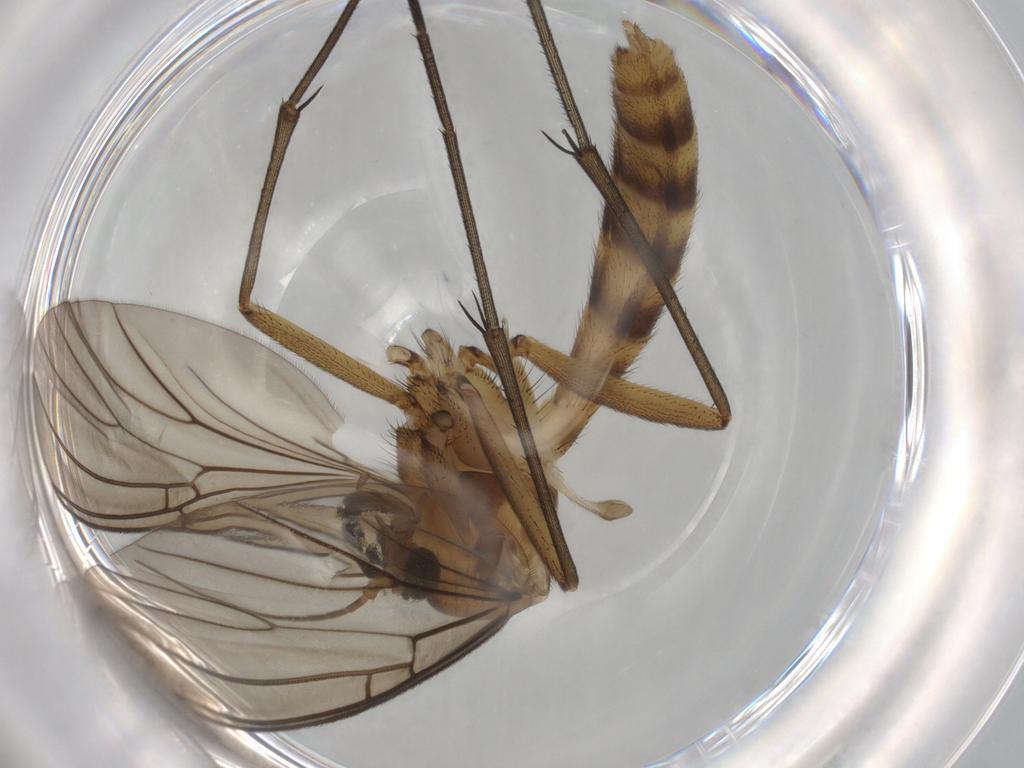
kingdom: Animalia
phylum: Arthropoda
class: Insecta
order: Diptera
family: Mycetophilidae
